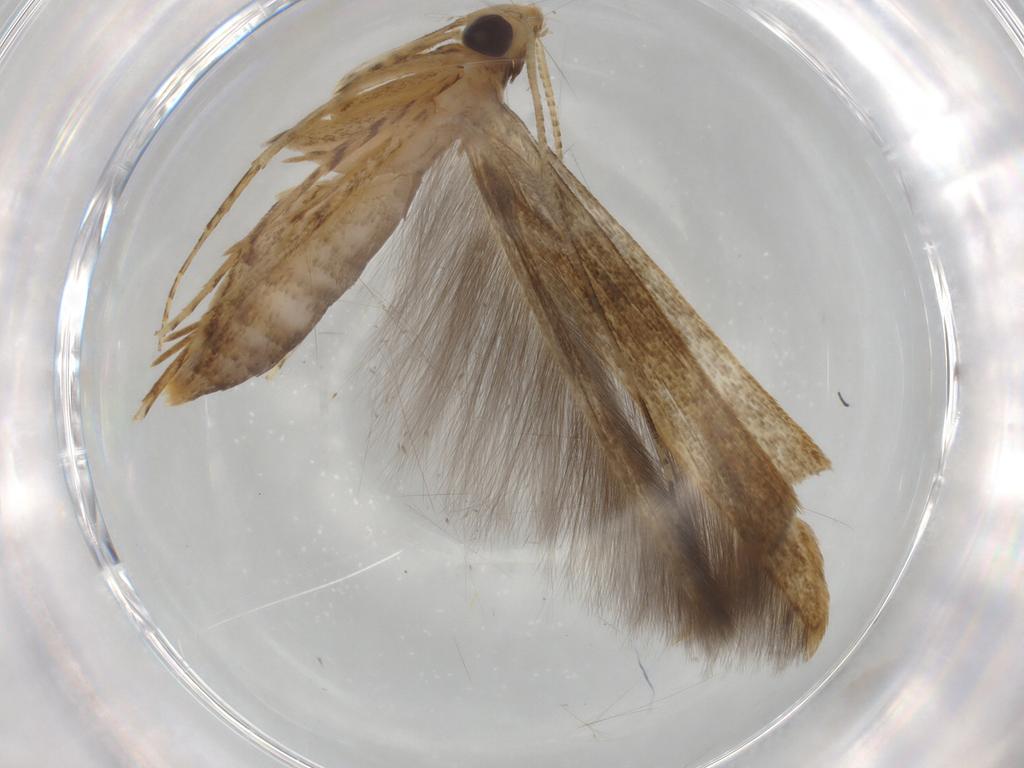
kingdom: Animalia
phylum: Arthropoda
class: Insecta
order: Lepidoptera
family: Batrachedridae
